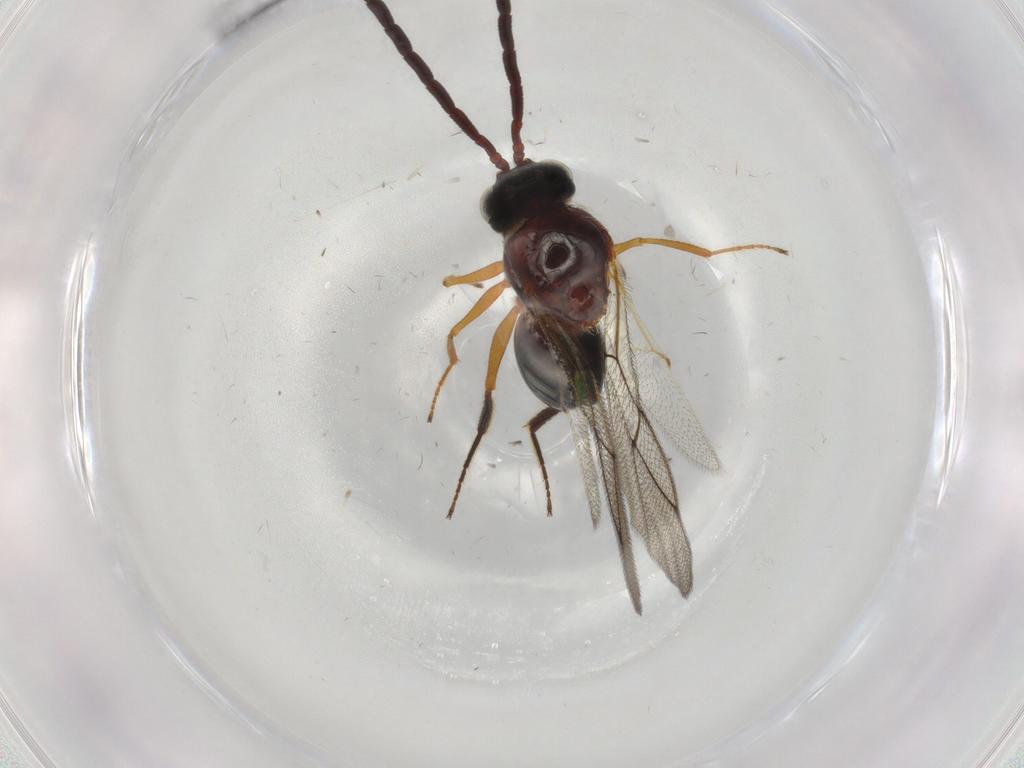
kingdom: Animalia
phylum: Arthropoda
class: Insecta
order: Hymenoptera
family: Figitidae
